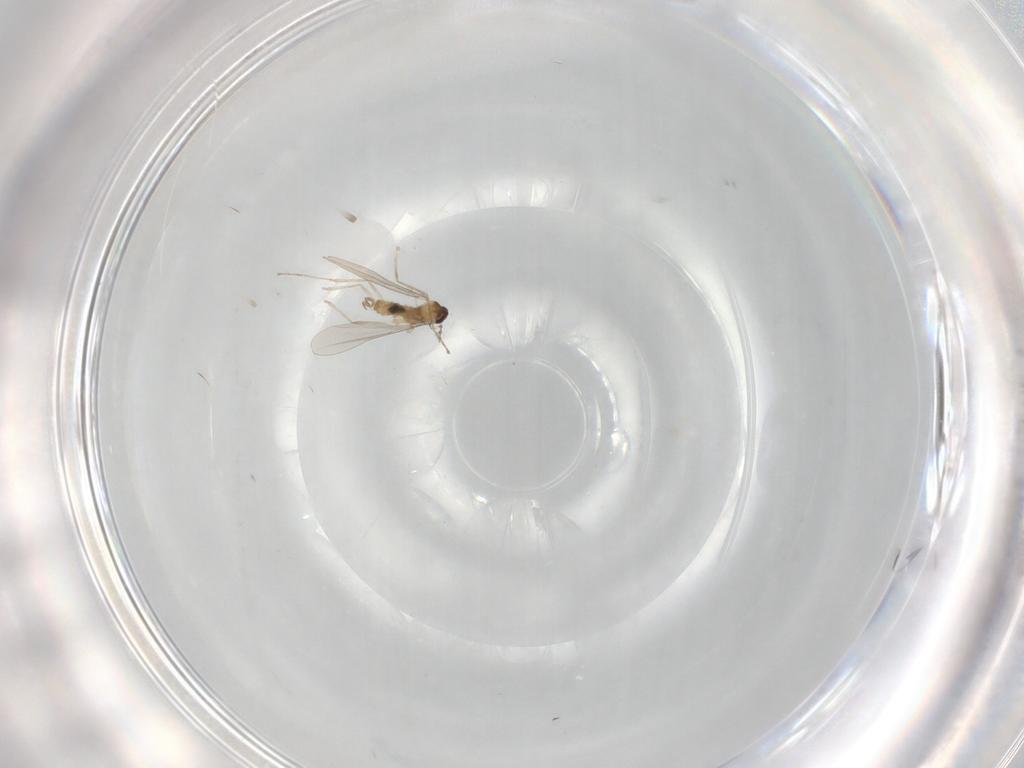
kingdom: Animalia
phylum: Arthropoda
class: Insecta
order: Diptera
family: Cecidomyiidae
